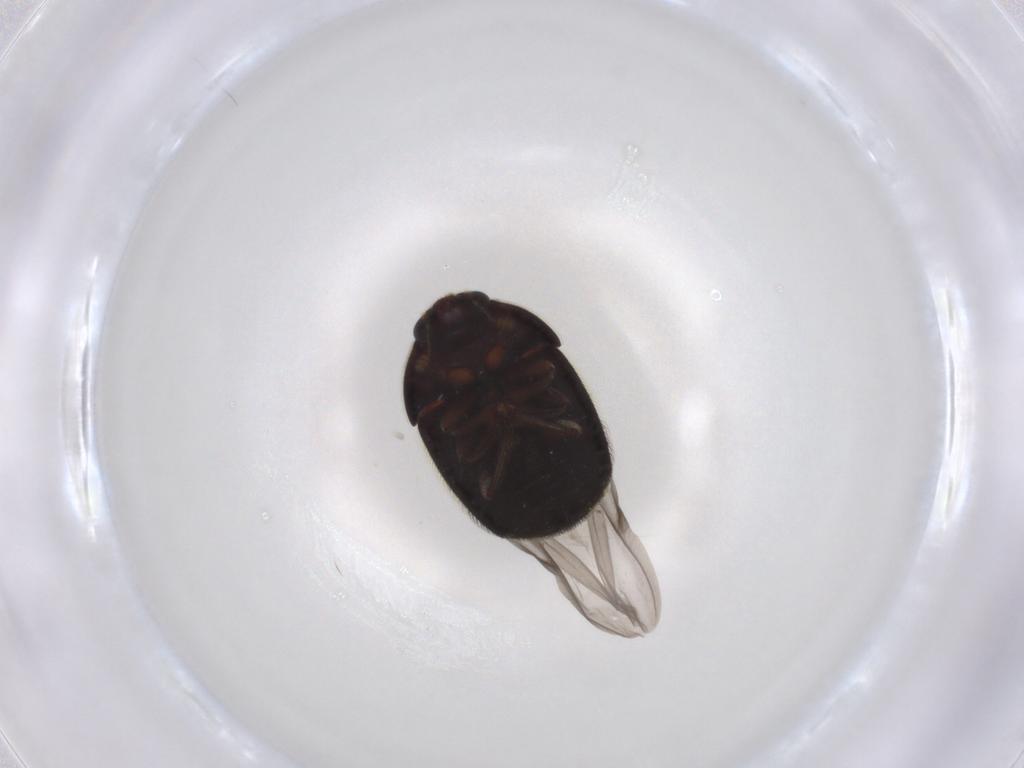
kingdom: Animalia
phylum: Arthropoda
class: Insecta
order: Coleoptera
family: Nitidulidae
